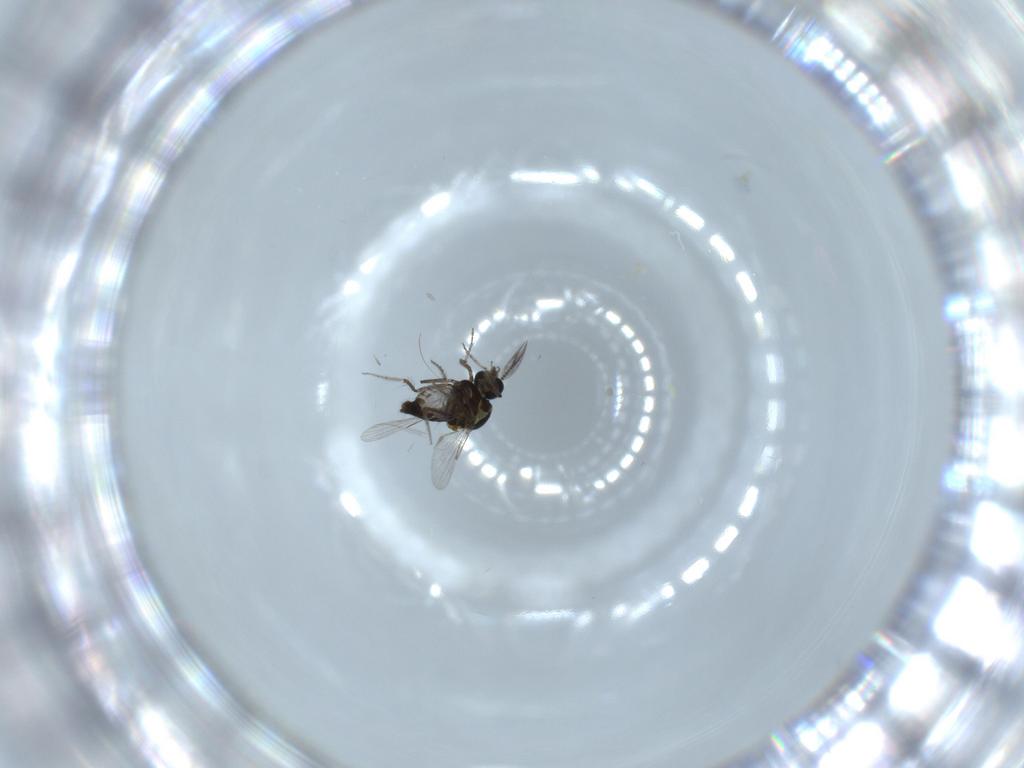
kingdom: Animalia
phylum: Arthropoda
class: Insecta
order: Diptera
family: Ceratopogonidae
